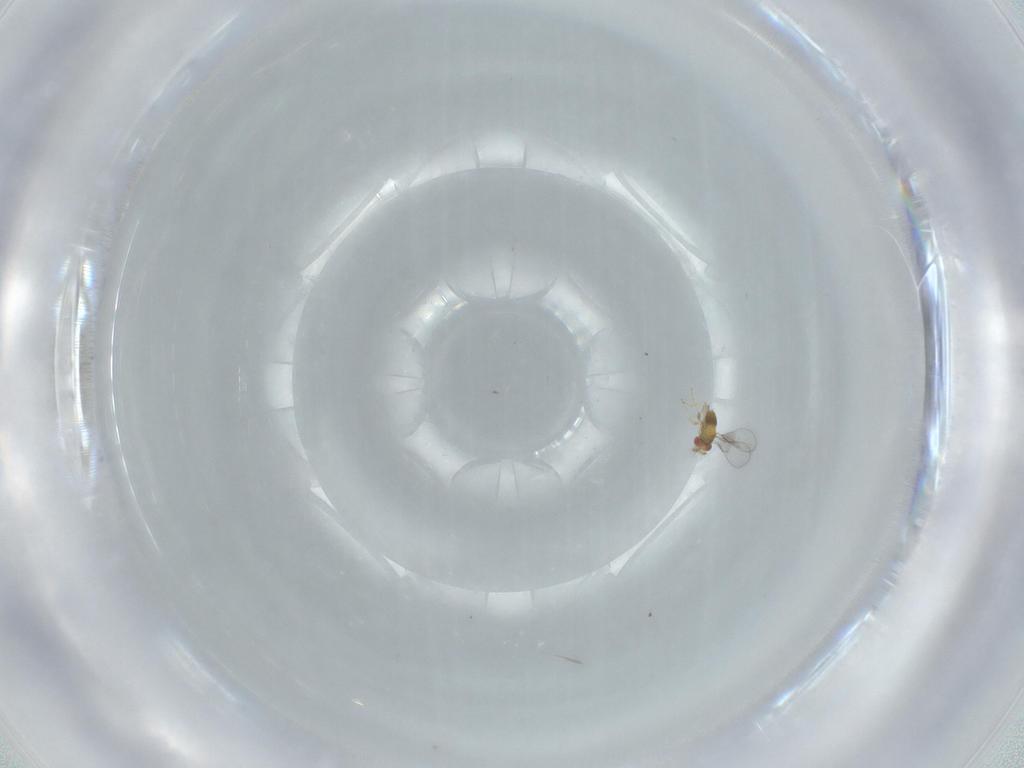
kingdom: Animalia
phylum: Arthropoda
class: Insecta
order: Hymenoptera
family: Trichogrammatidae
